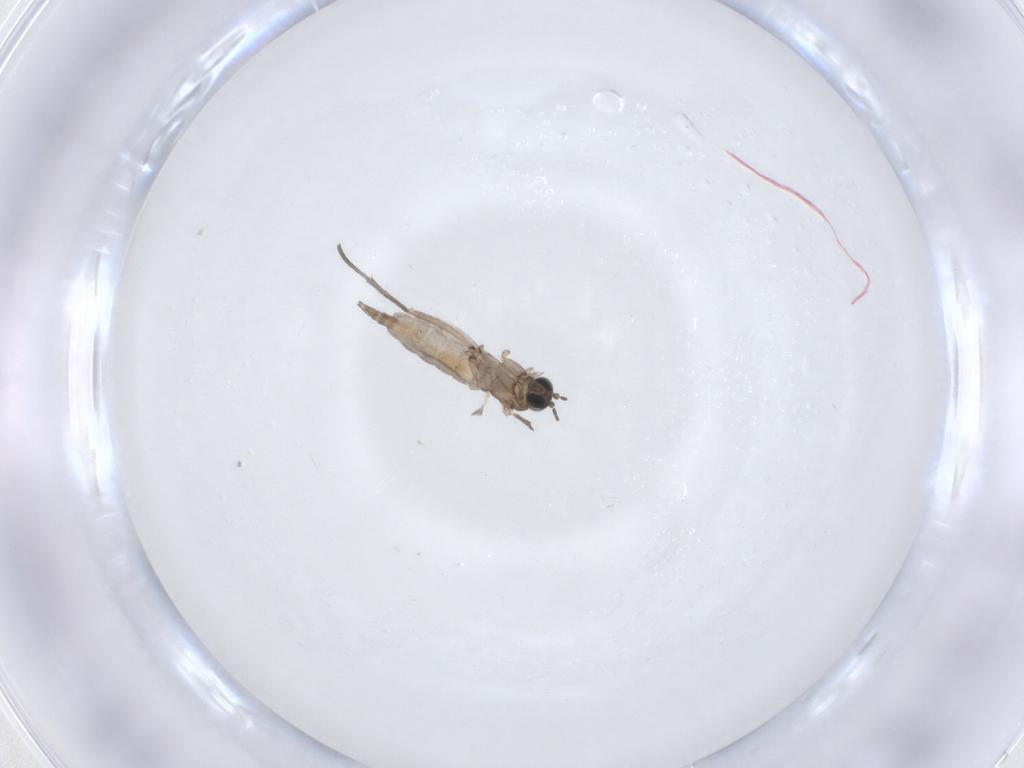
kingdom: Animalia
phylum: Arthropoda
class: Insecta
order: Diptera
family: Sciaridae
